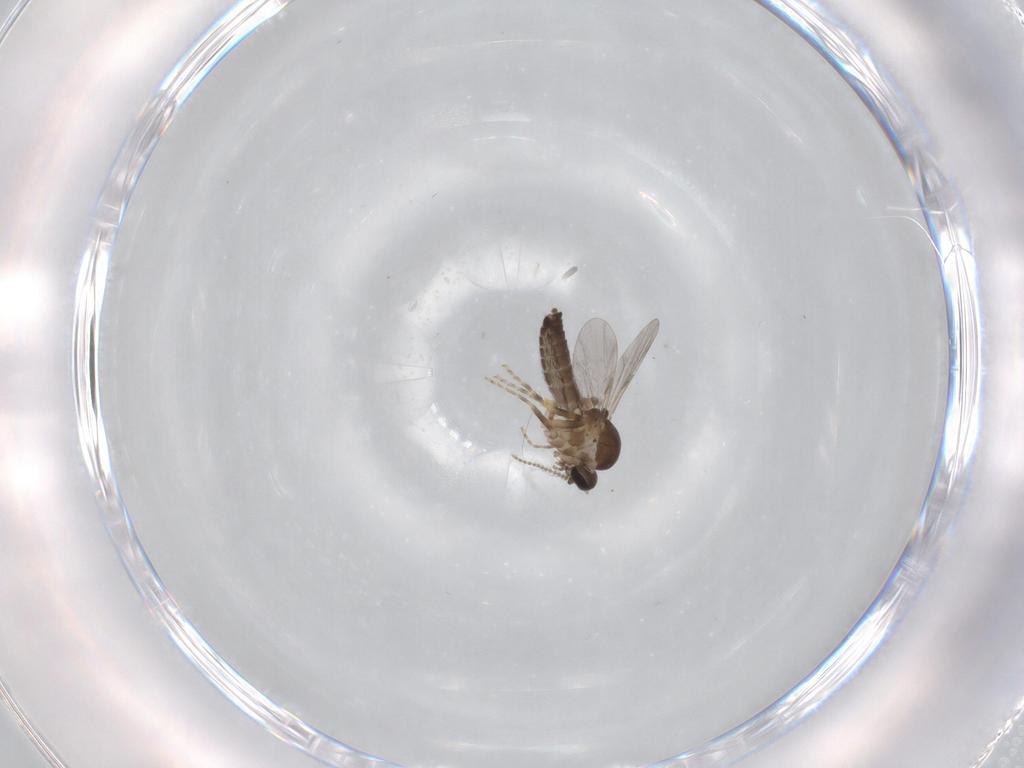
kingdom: Animalia
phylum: Arthropoda
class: Insecta
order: Diptera
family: Ceratopogonidae
